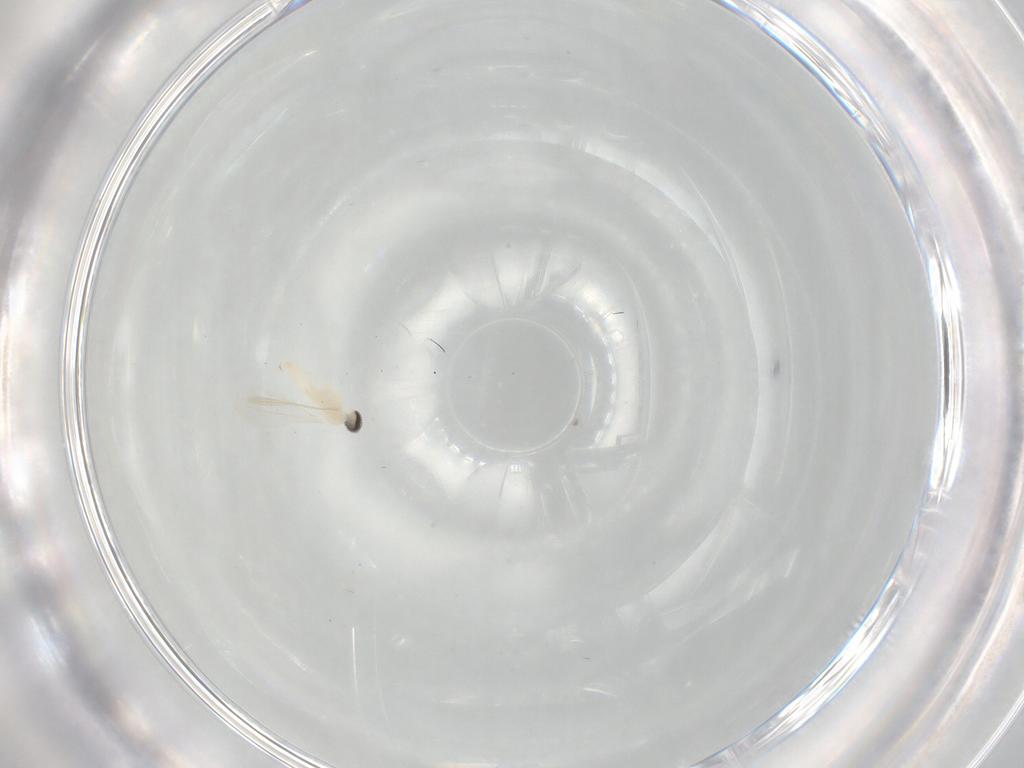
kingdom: Animalia
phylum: Arthropoda
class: Insecta
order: Diptera
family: Cecidomyiidae
